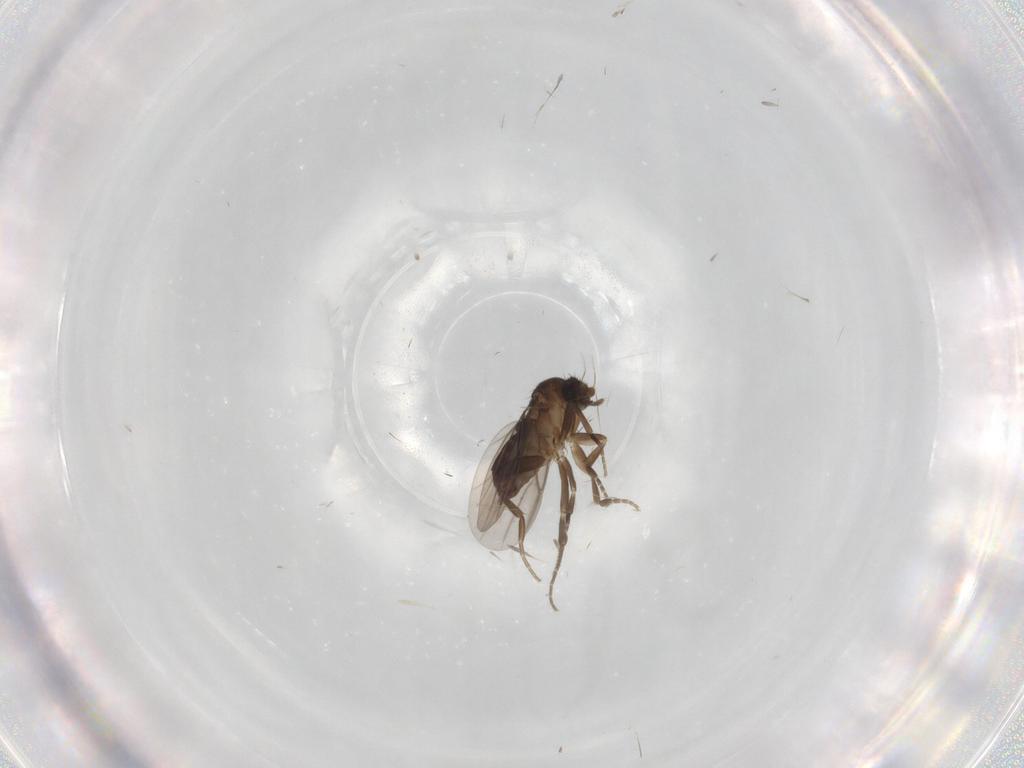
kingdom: Animalia
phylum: Arthropoda
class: Insecta
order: Diptera
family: Phoridae
